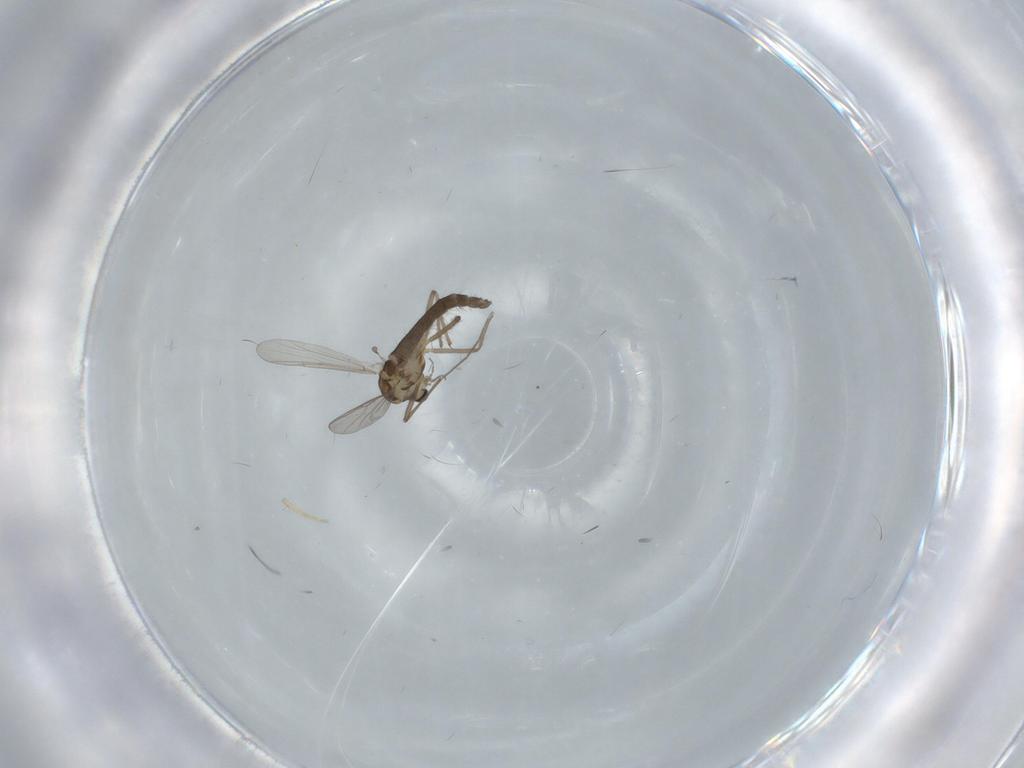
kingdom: Animalia
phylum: Arthropoda
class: Insecta
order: Diptera
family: Chironomidae
